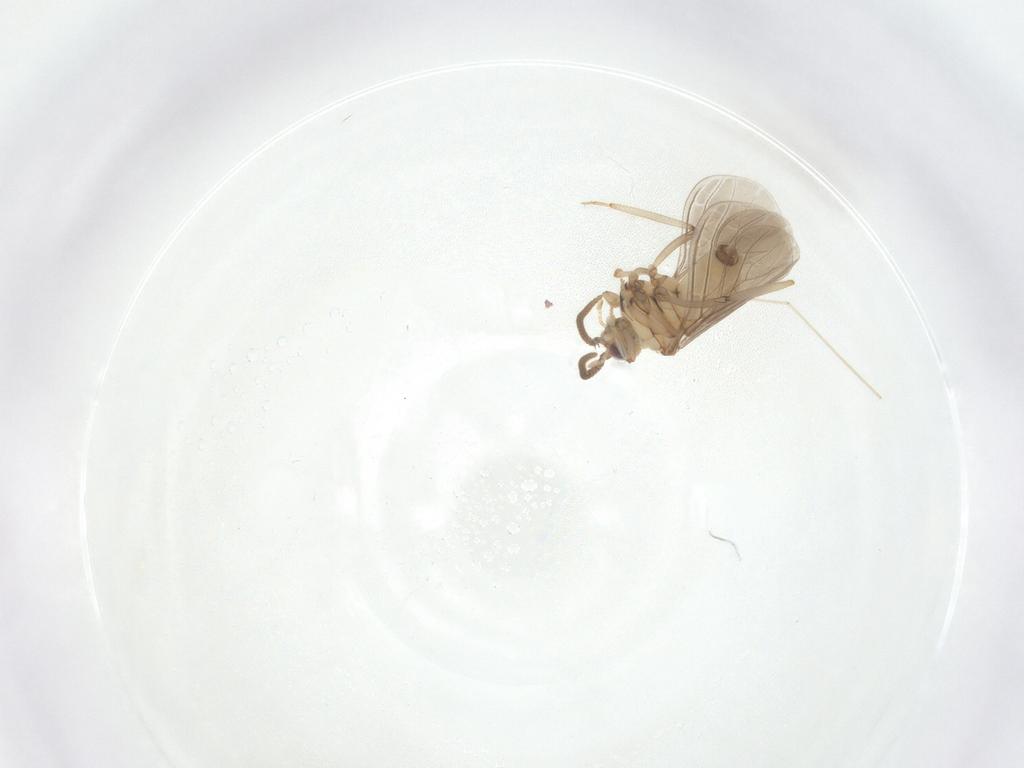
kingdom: Animalia
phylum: Arthropoda
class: Insecta
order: Neuroptera
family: Coniopterygidae
